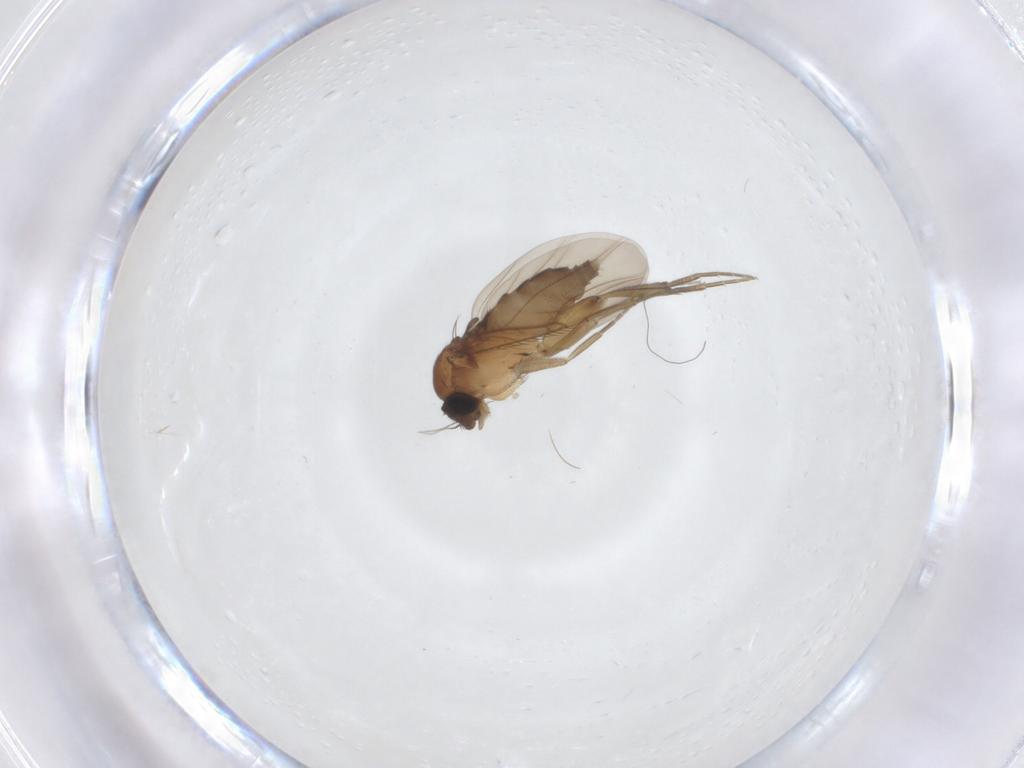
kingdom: Animalia
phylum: Arthropoda
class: Insecta
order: Diptera
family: Phoridae
